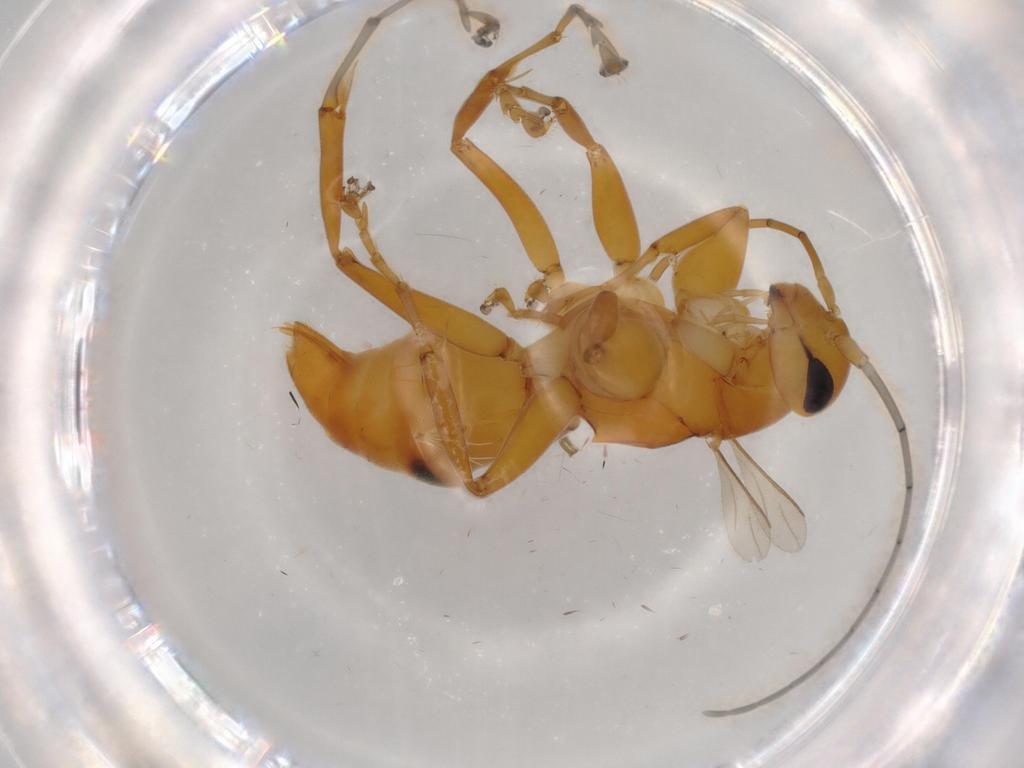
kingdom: Animalia
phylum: Arthropoda
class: Insecta
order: Hymenoptera
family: Rhopalosomatidae
